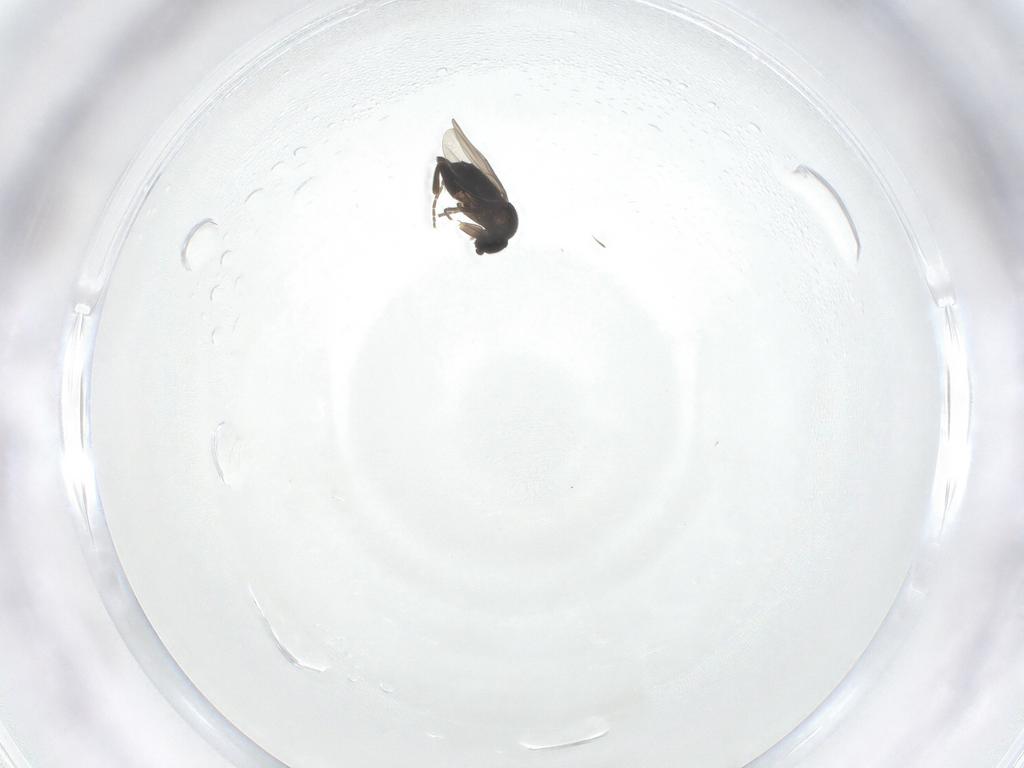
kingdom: Animalia
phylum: Arthropoda
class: Insecta
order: Diptera
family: Phoridae
